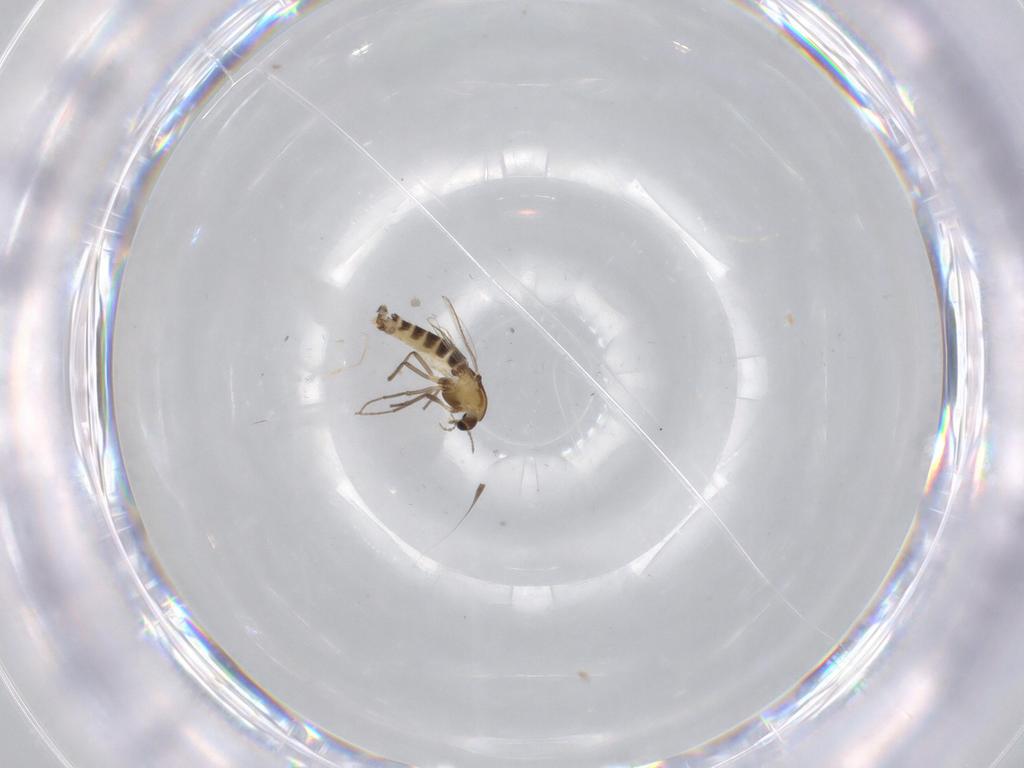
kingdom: Animalia
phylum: Arthropoda
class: Insecta
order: Diptera
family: Chironomidae
